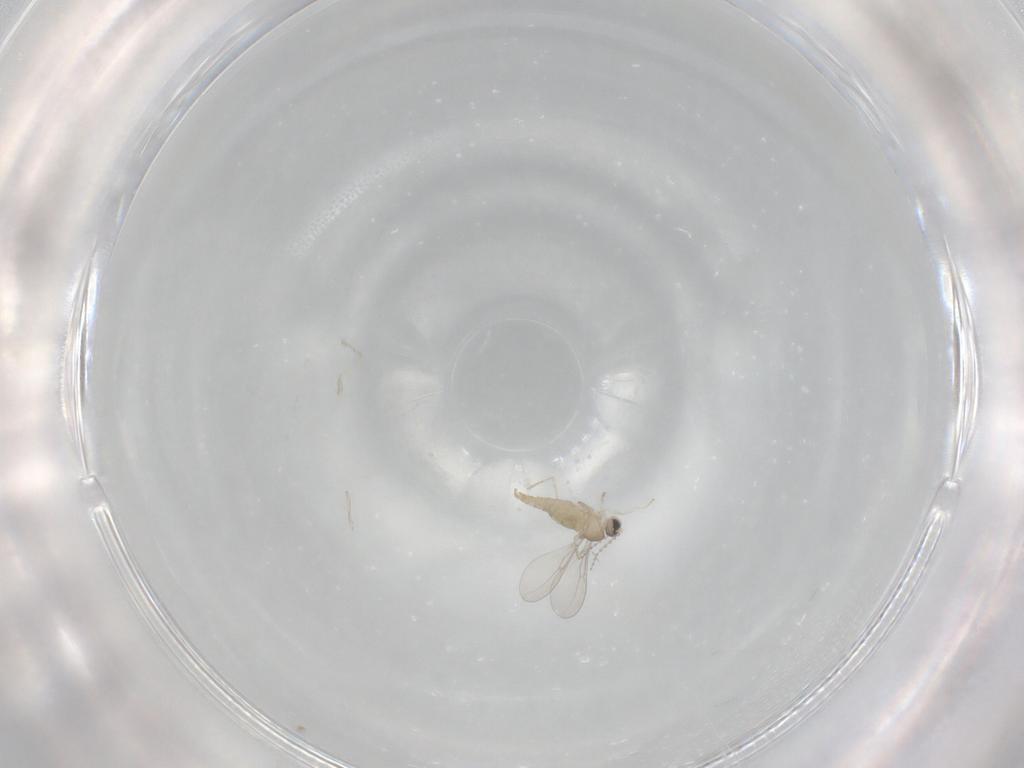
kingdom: Animalia
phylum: Arthropoda
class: Insecta
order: Diptera
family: Cecidomyiidae
